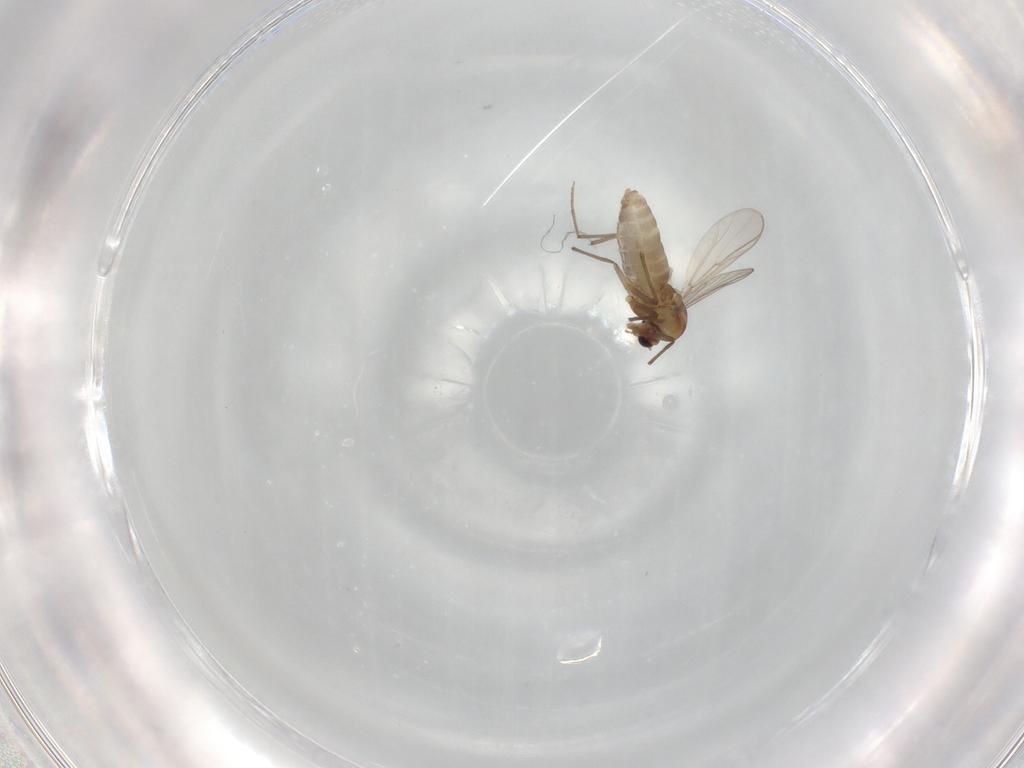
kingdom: Animalia
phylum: Arthropoda
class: Insecta
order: Diptera
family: Phoridae
